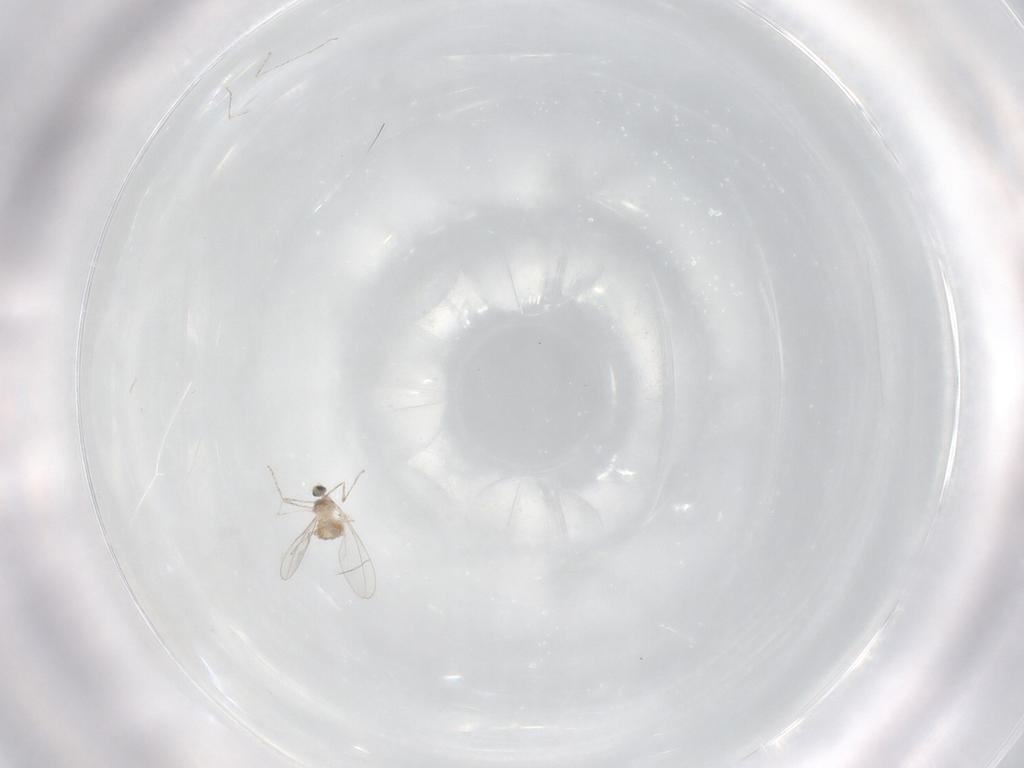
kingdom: Animalia
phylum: Arthropoda
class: Insecta
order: Diptera
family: Cecidomyiidae
